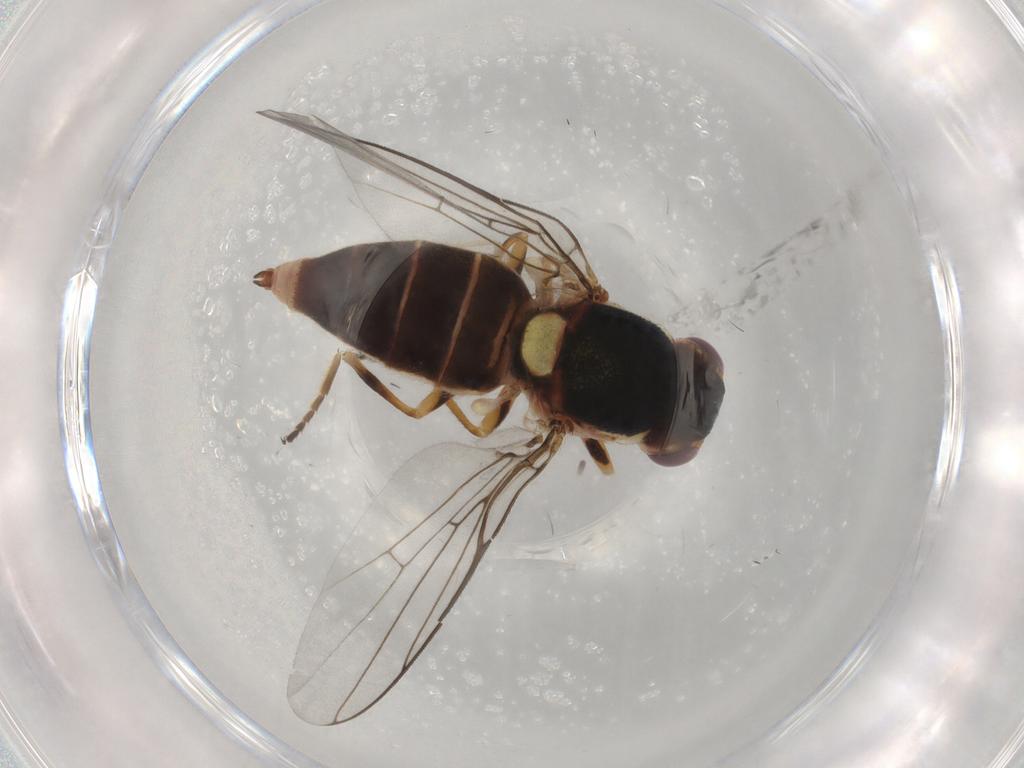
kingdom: Animalia
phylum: Arthropoda
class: Insecta
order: Diptera
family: Chloropidae
